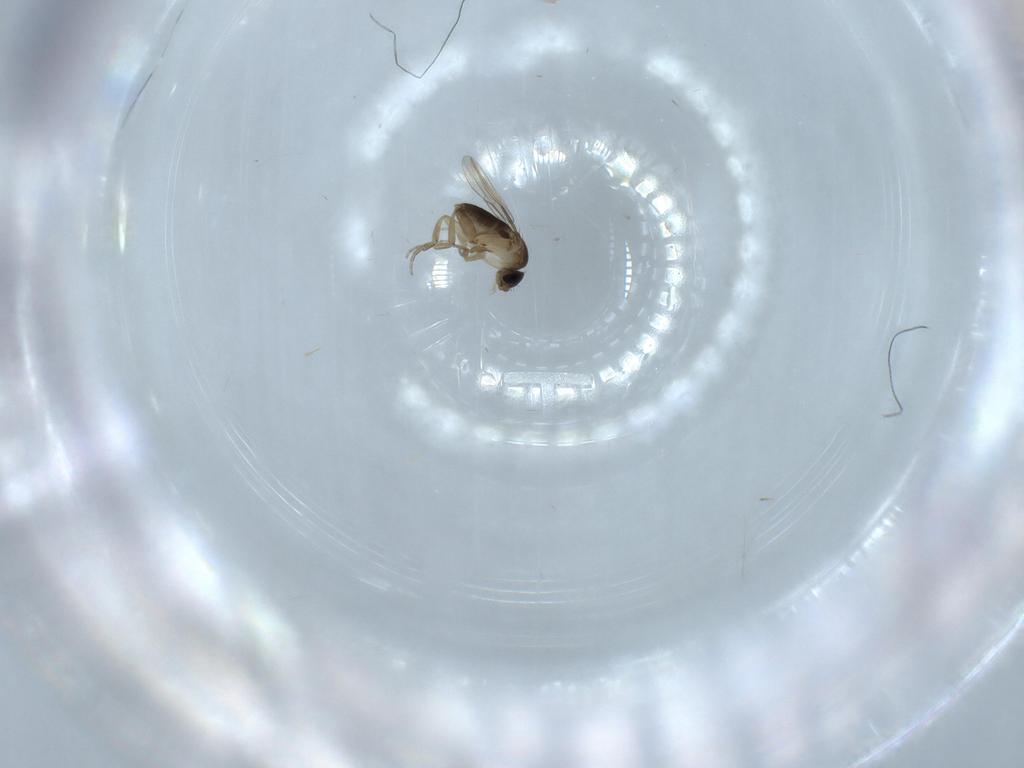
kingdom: Animalia
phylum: Arthropoda
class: Insecta
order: Diptera
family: Phoridae
